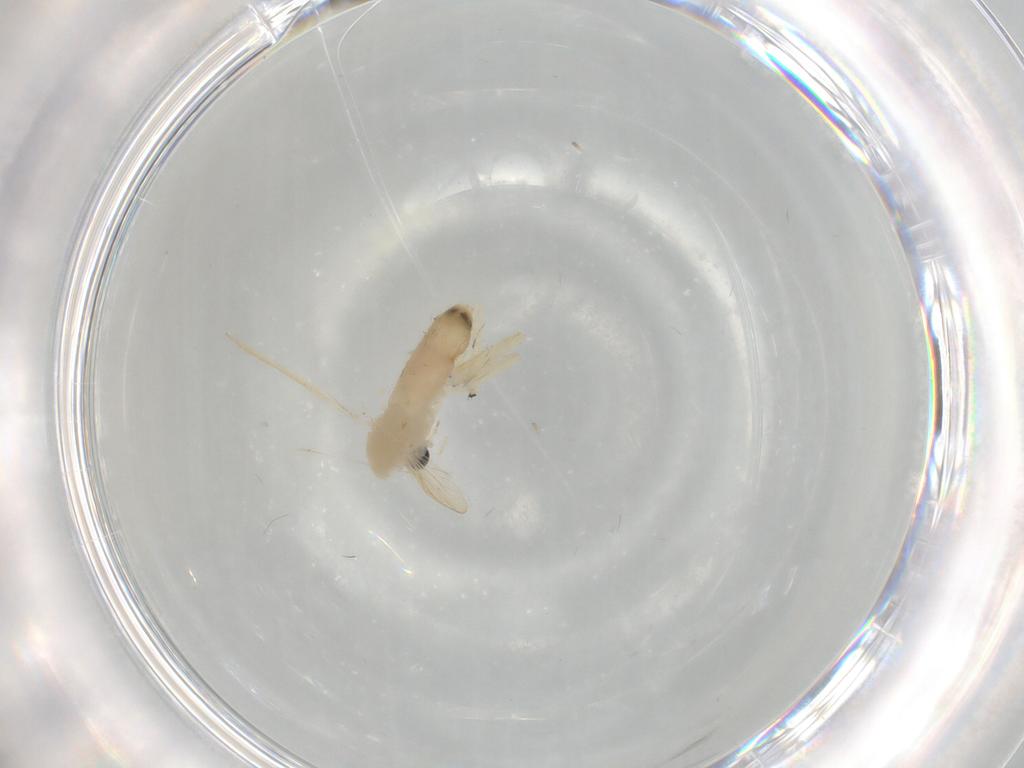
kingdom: Animalia
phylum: Arthropoda
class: Insecta
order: Diptera
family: Chironomidae
